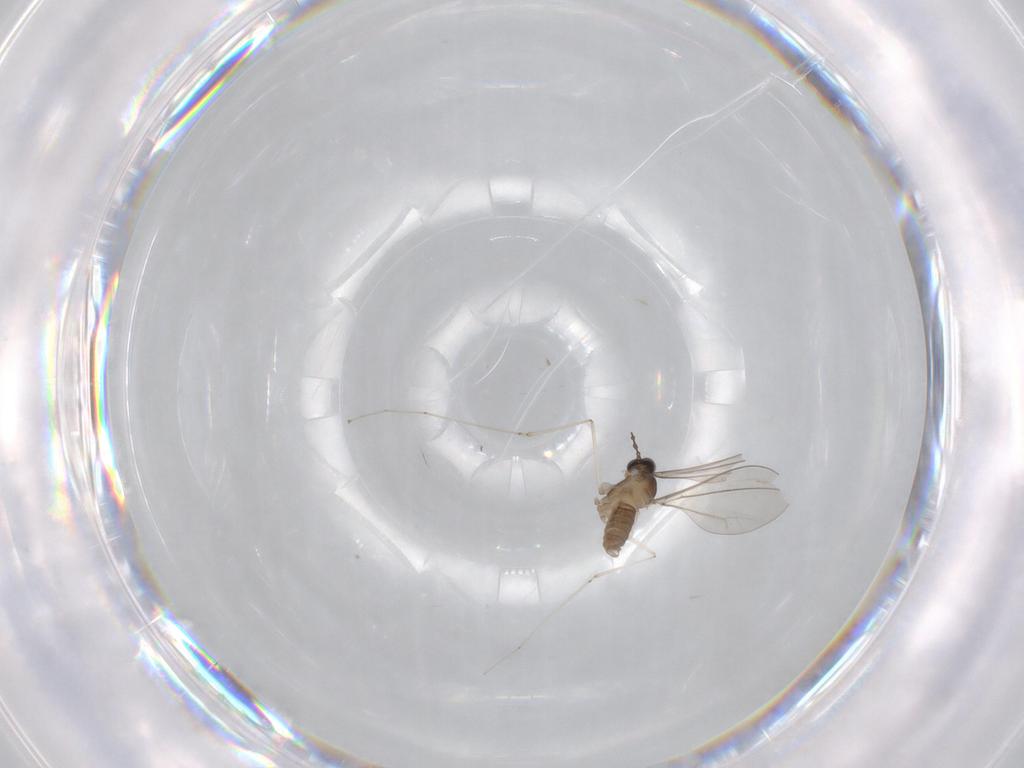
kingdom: Animalia
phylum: Arthropoda
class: Insecta
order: Diptera
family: Cecidomyiidae
